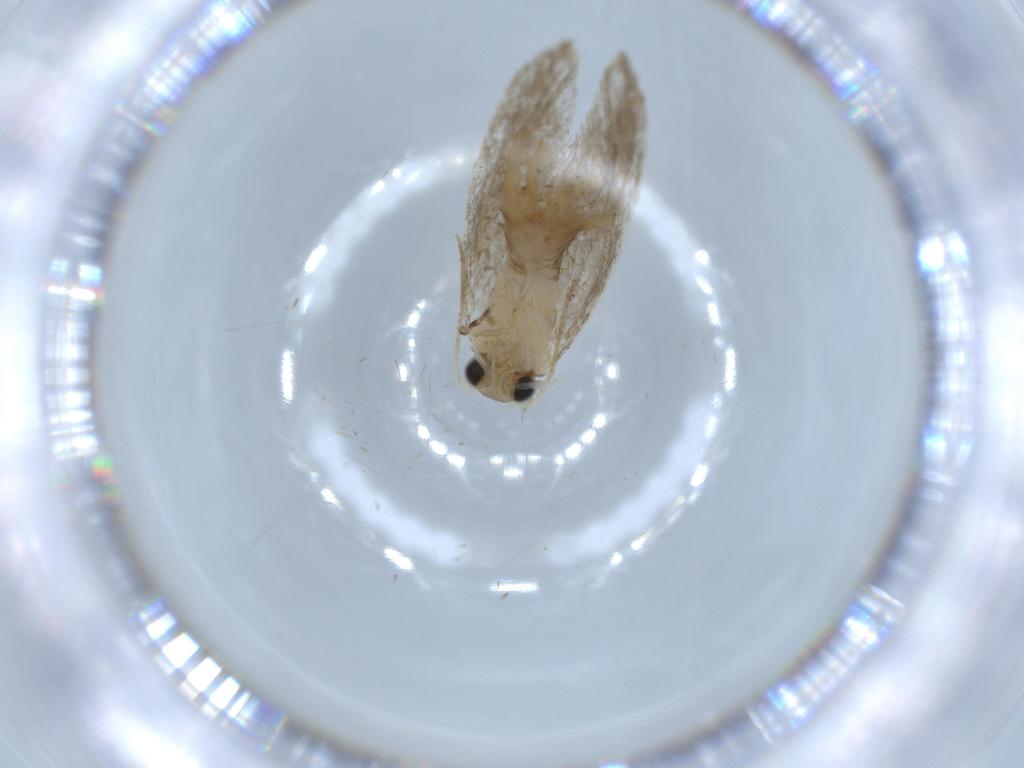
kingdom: Animalia
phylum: Arthropoda
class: Insecta
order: Lepidoptera
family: Tineidae
